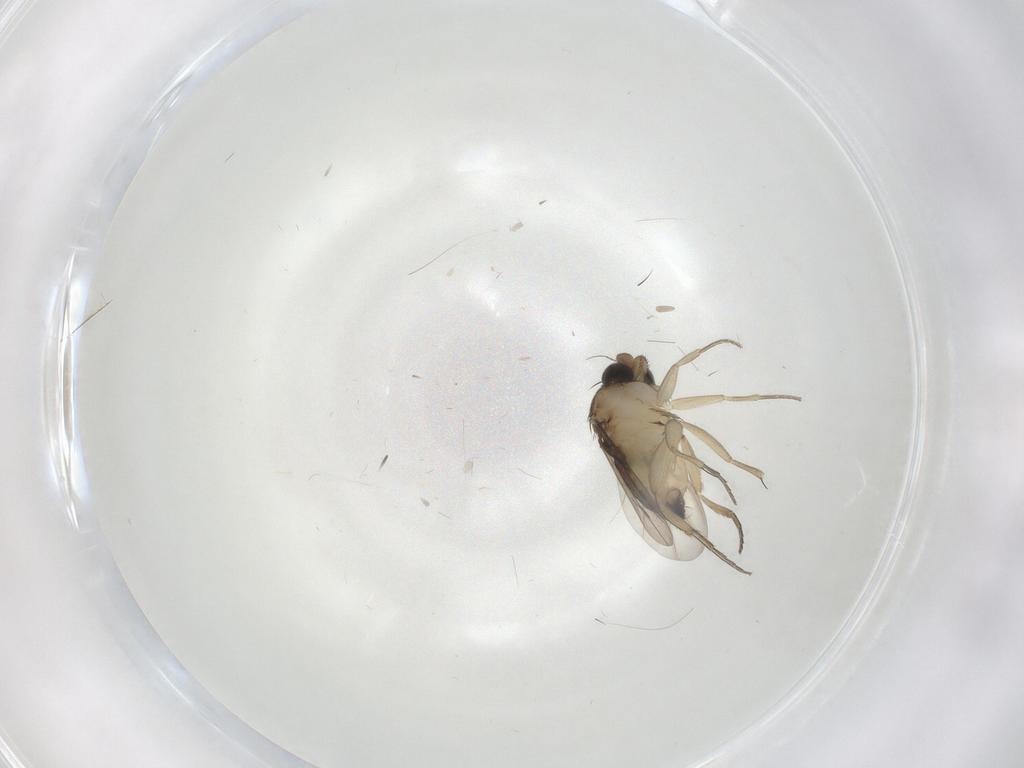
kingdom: Animalia
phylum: Arthropoda
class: Insecta
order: Diptera
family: Phoridae
